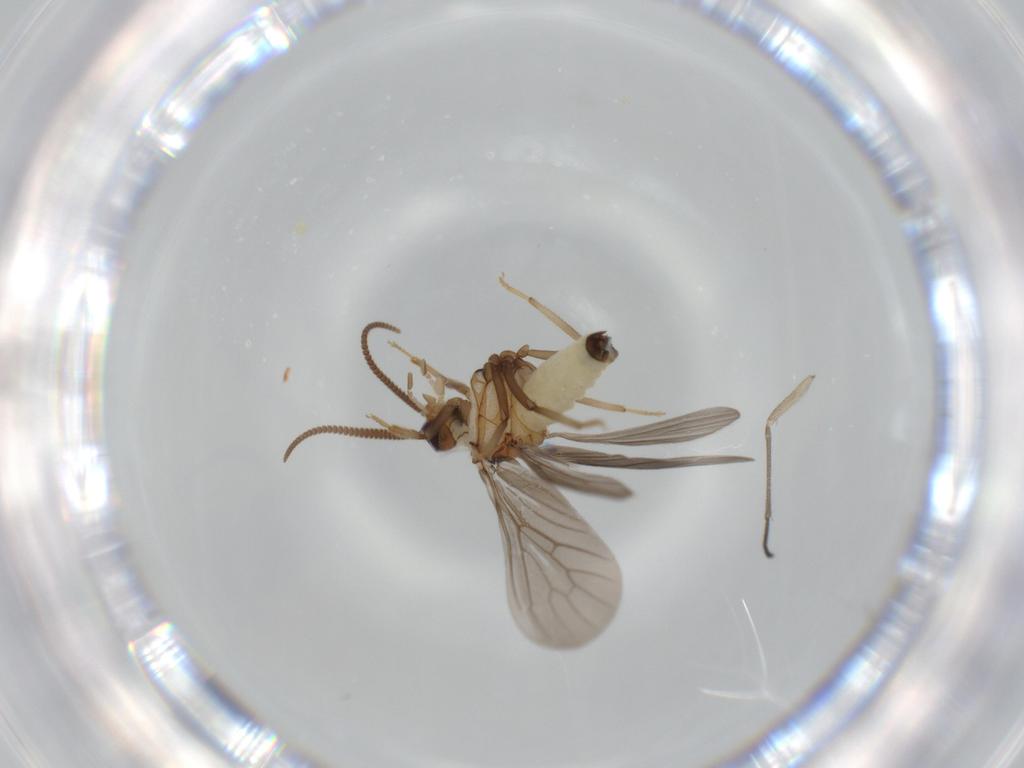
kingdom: Animalia
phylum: Arthropoda
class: Insecta
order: Neuroptera
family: Coniopterygidae
